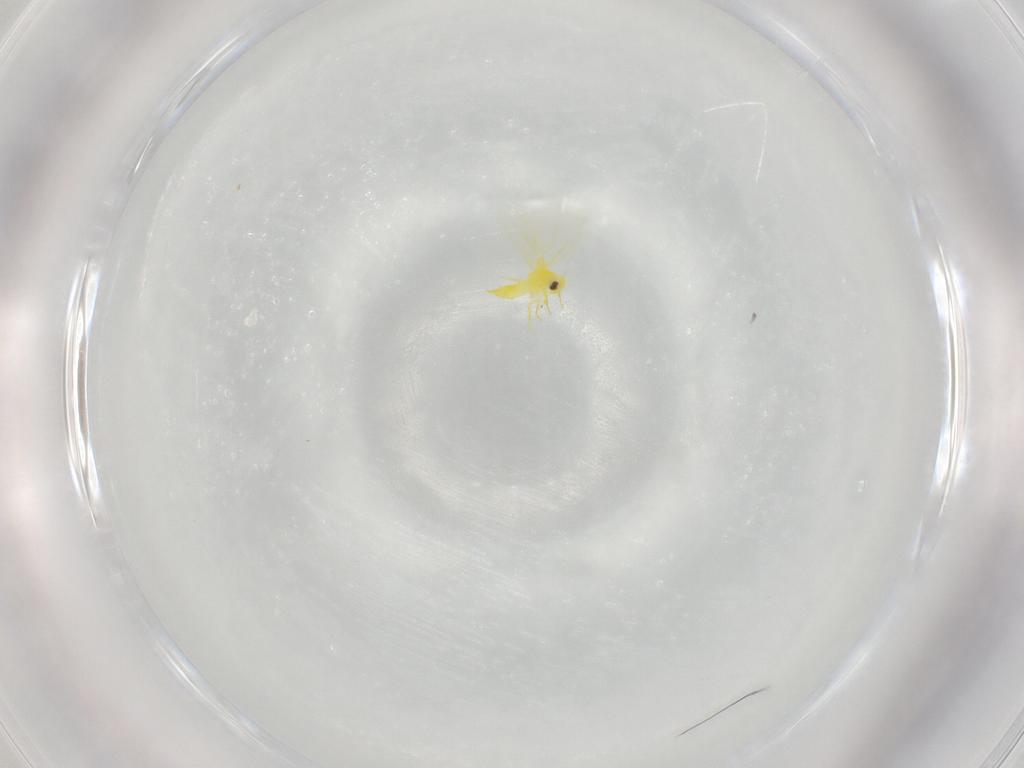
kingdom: Animalia
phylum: Arthropoda
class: Insecta
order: Hemiptera
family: Aleyrodidae
